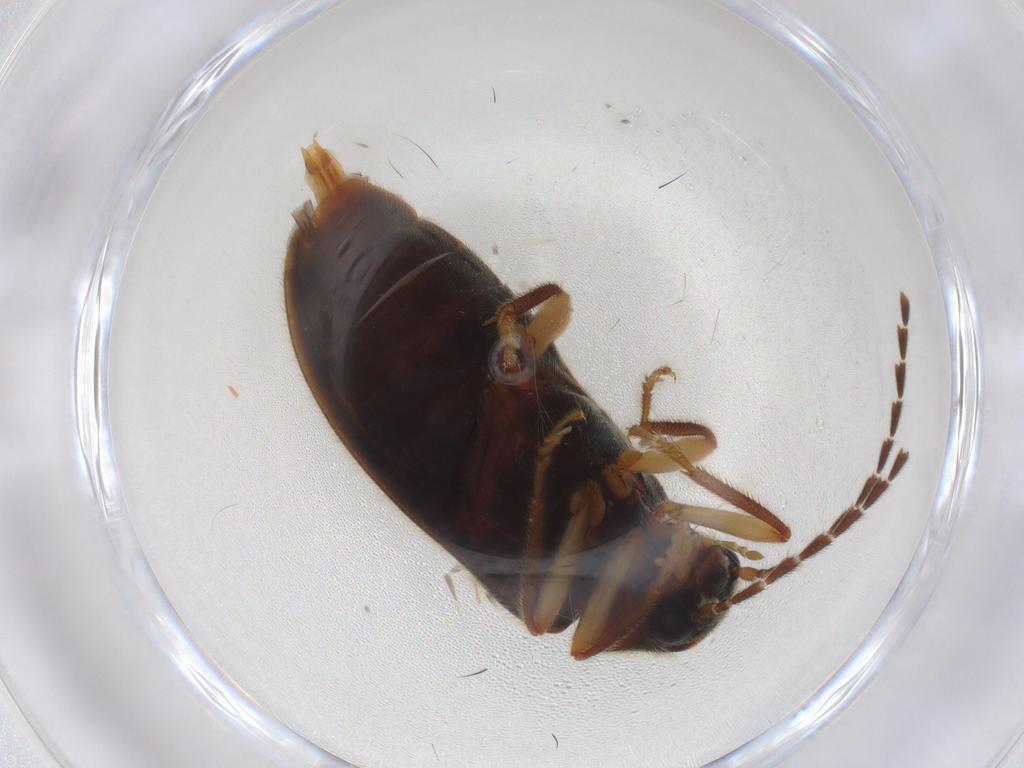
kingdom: Animalia
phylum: Arthropoda
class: Insecta
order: Coleoptera
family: Ptilodactylidae
